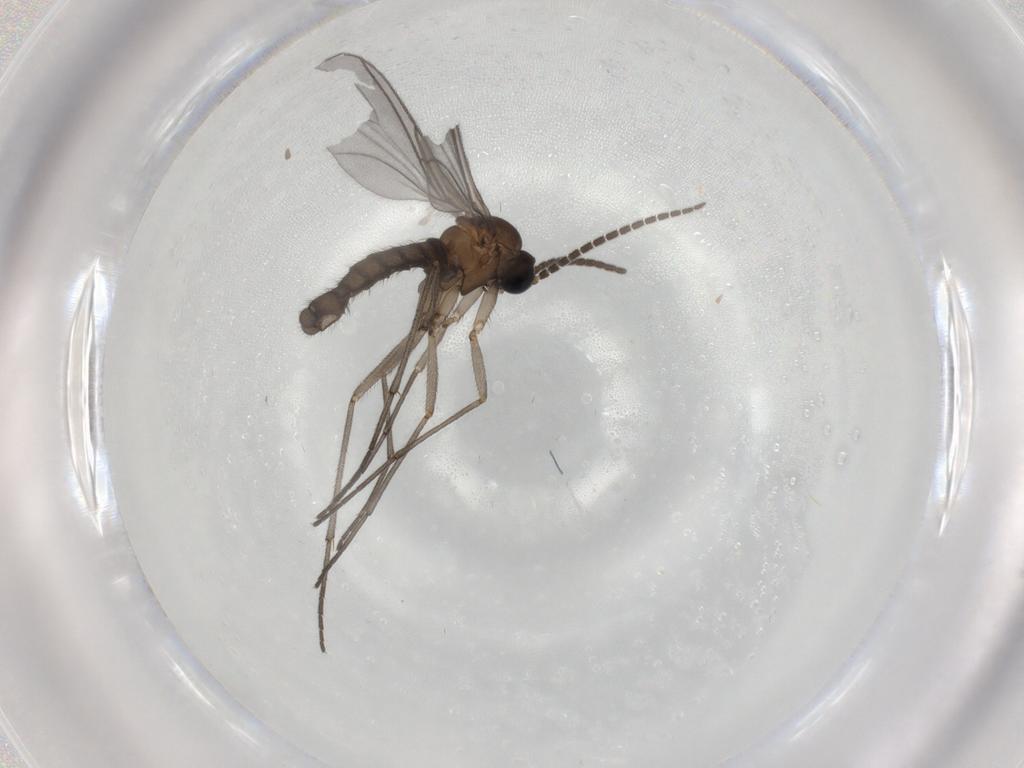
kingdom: Animalia
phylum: Arthropoda
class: Insecta
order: Diptera
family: Sciaridae
